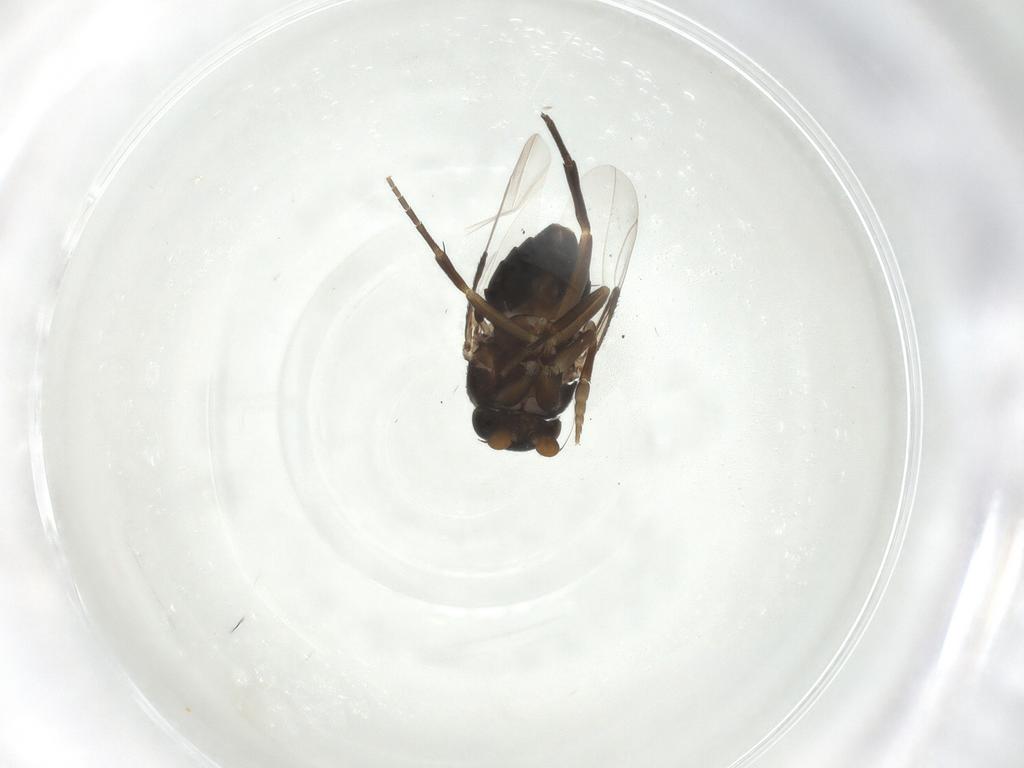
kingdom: Animalia
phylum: Arthropoda
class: Insecta
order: Diptera
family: Phoridae
